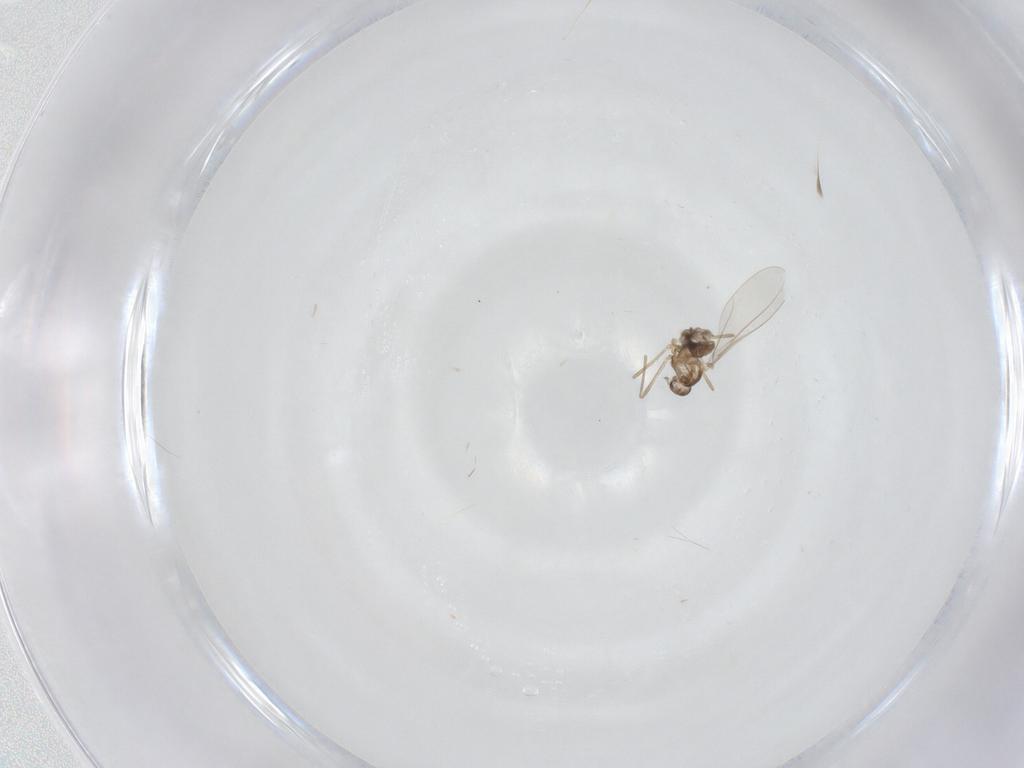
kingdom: Animalia
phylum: Arthropoda
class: Insecta
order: Diptera
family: Cecidomyiidae
